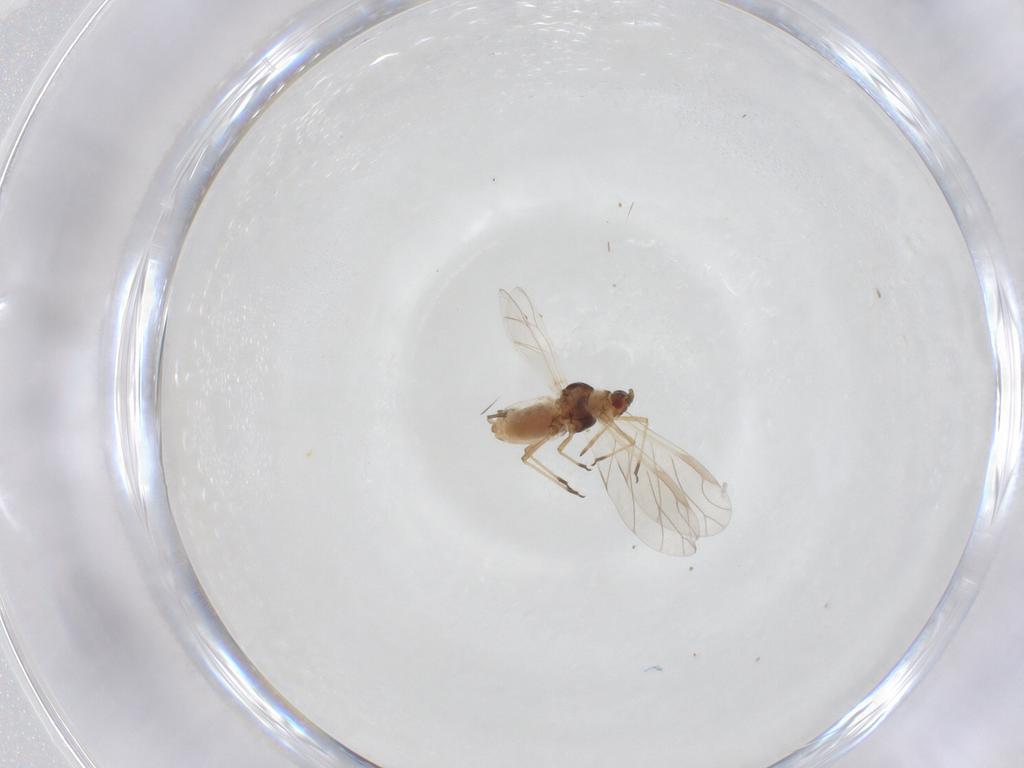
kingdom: Animalia
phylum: Arthropoda
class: Insecta
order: Hemiptera
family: Aphididae
